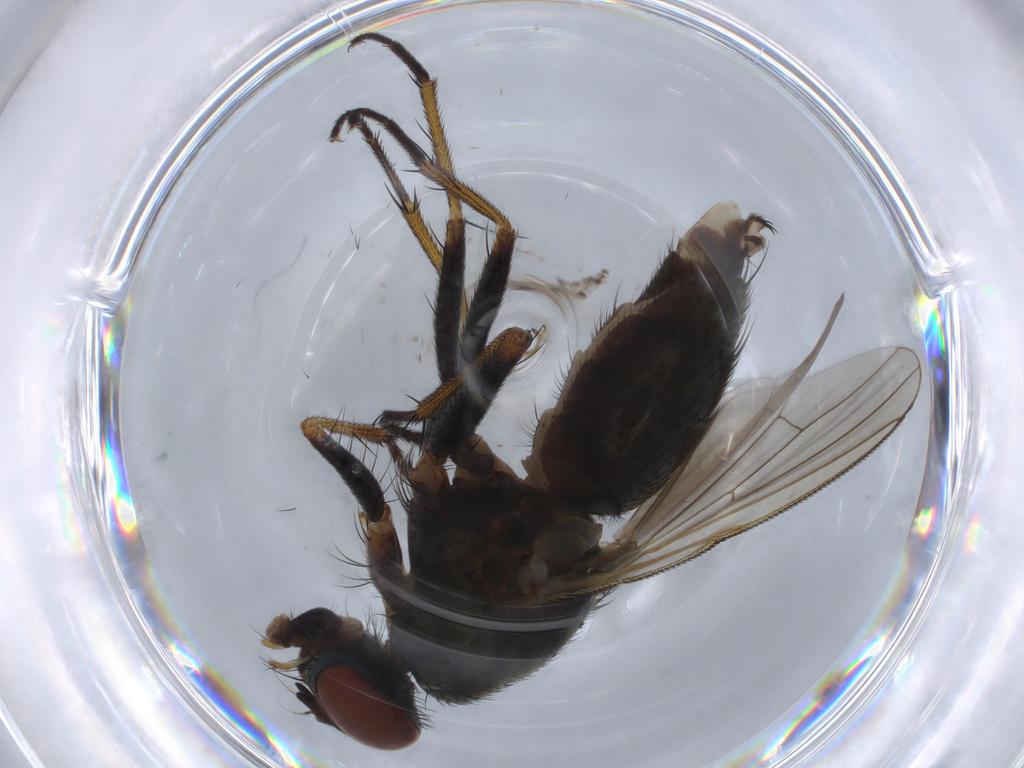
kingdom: Animalia
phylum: Arthropoda
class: Insecta
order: Diptera
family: Muscidae
